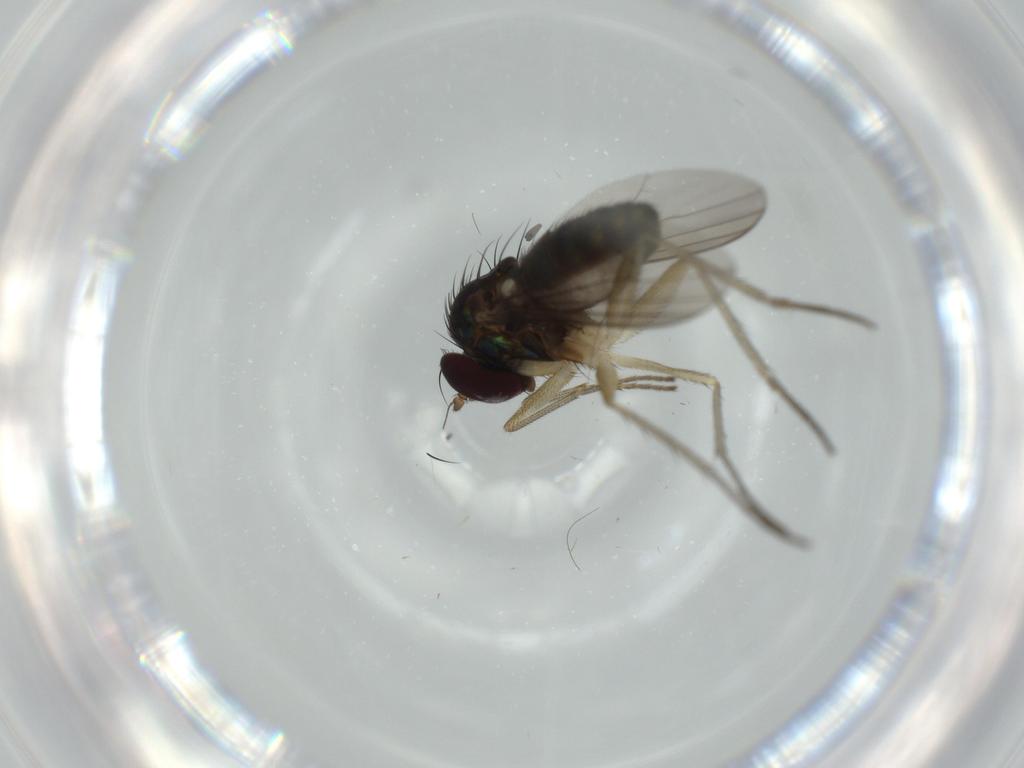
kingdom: Animalia
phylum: Arthropoda
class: Insecta
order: Diptera
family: Dolichopodidae
